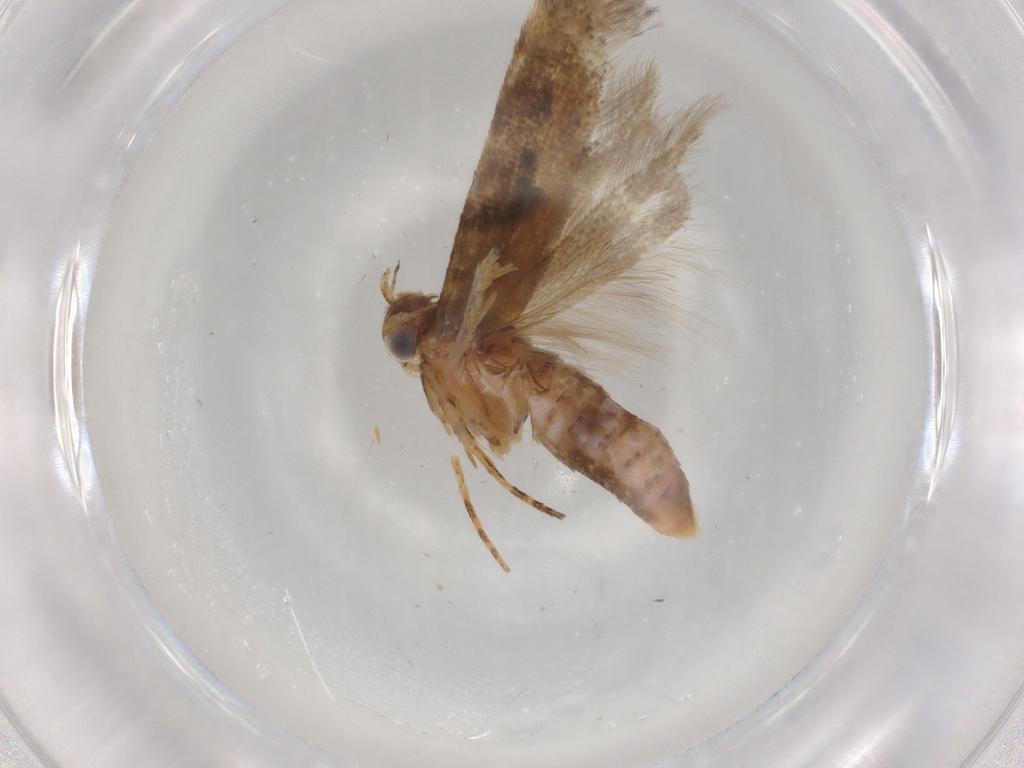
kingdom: Animalia
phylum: Arthropoda
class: Insecta
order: Lepidoptera
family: Gelechiidae
